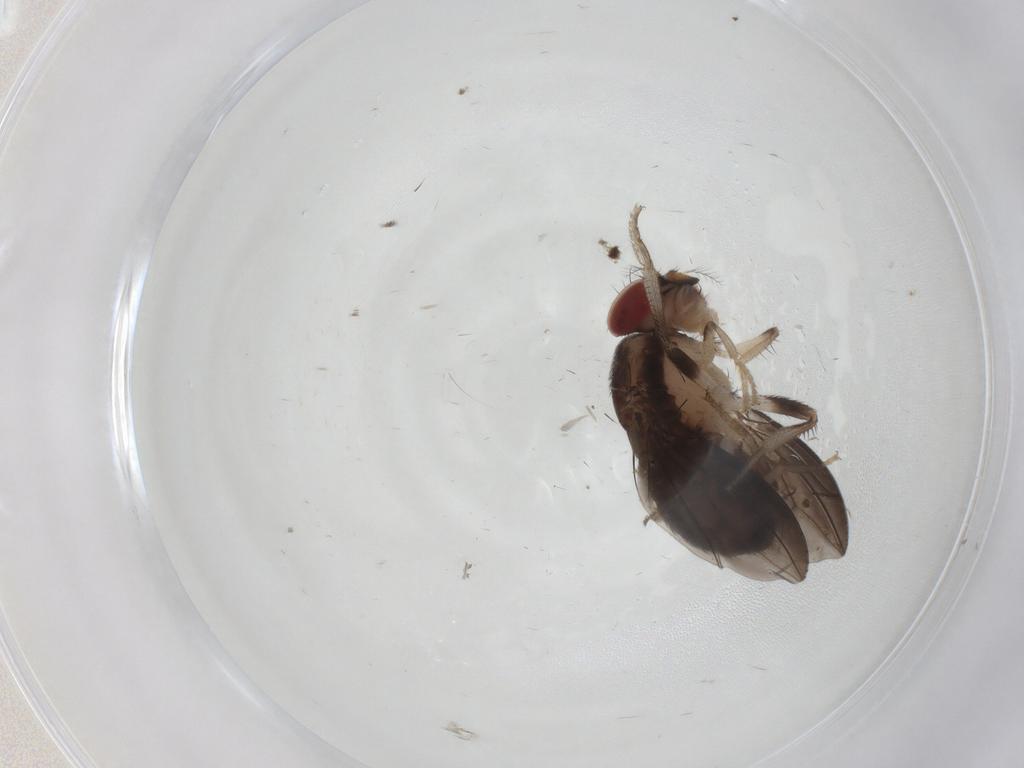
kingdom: Animalia
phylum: Arthropoda
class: Insecta
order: Diptera
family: Drosophilidae
